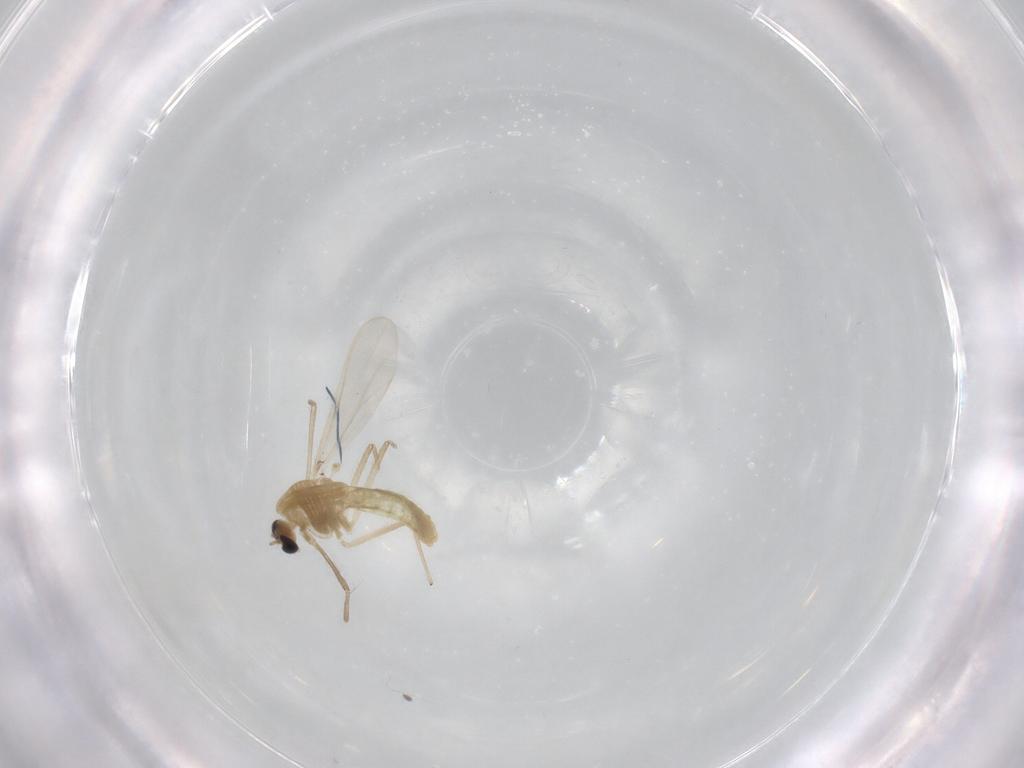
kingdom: Animalia
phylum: Arthropoda
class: Insecta
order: Diptera
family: Chironomidae
